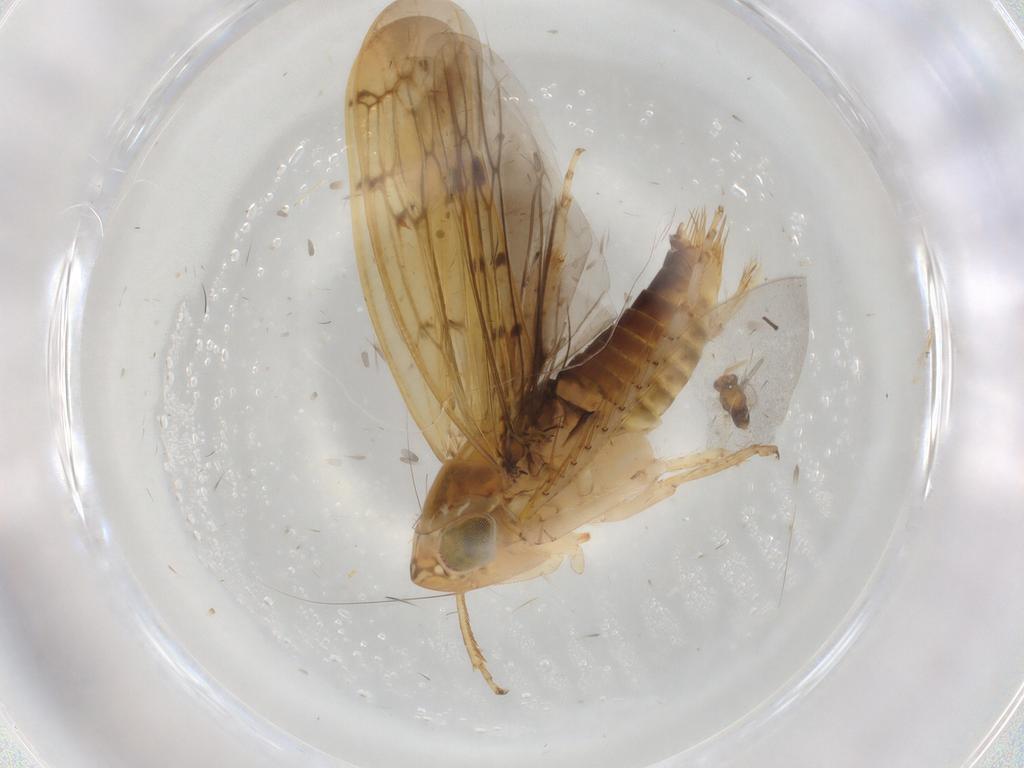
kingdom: Animalia
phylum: Arthropoda
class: Insecta
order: Hymenoptera
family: Aphelinidae
